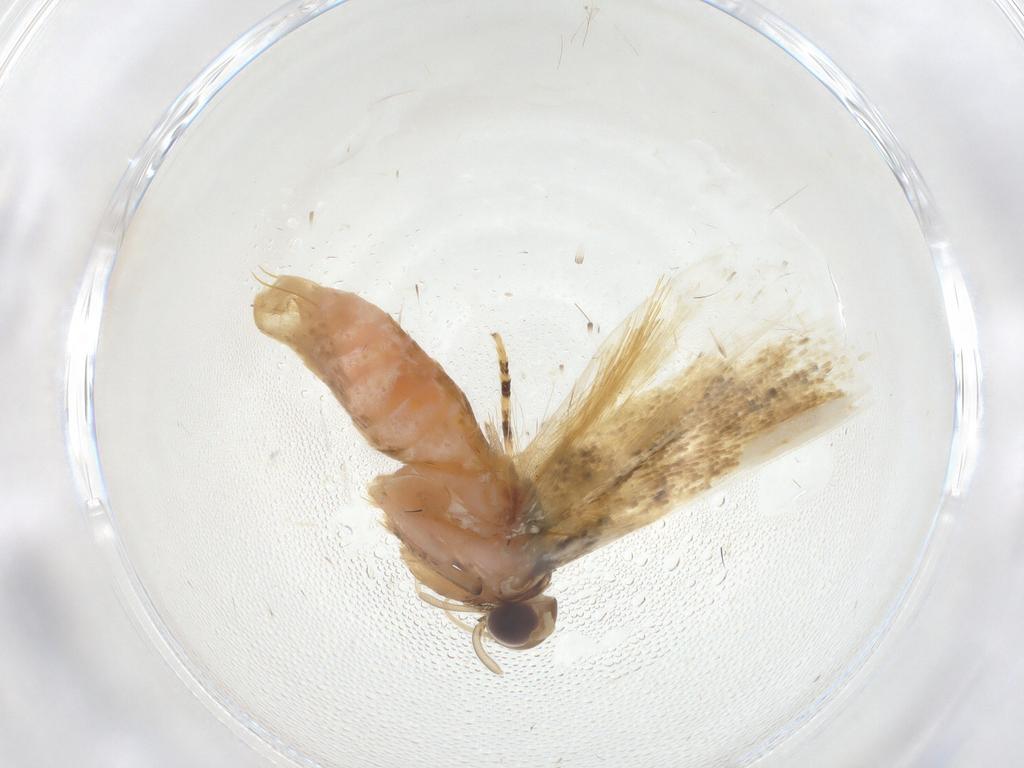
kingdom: Animalia
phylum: Arthropoda
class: Insecta
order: Lepidoptera
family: Gelechiidae
